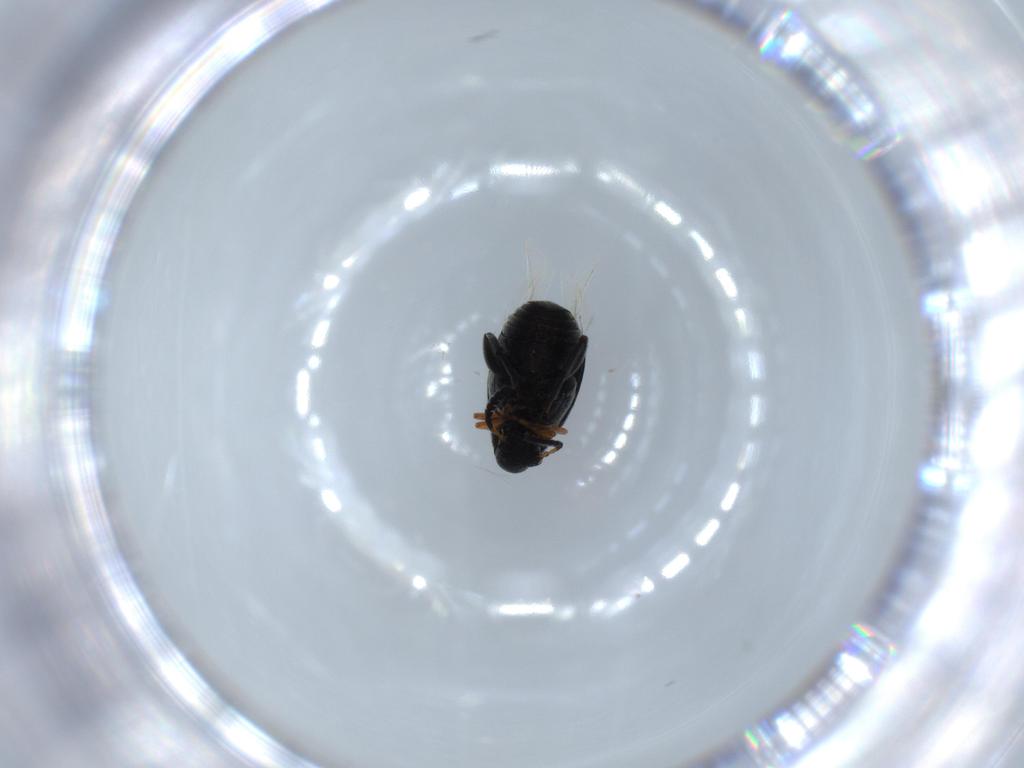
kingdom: Animalia
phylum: Arthropoda
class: Insecta
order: Coleoptera
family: Chrysomelidae
